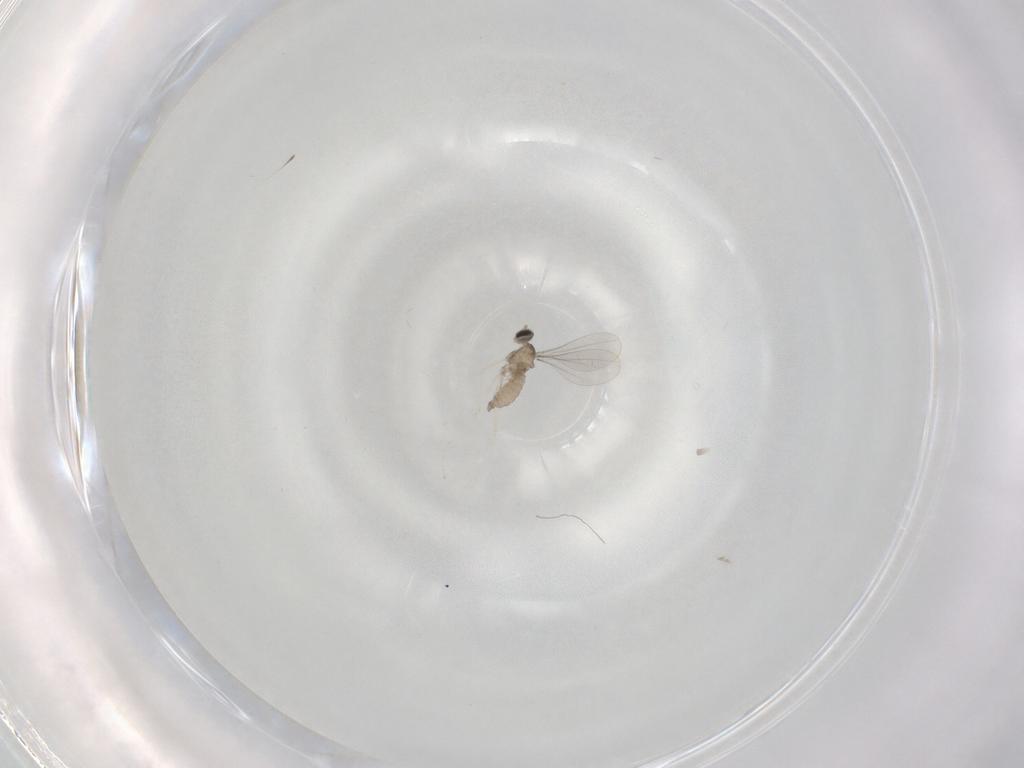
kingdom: Animalia
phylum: Arthropoda
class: Insecta
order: Diptera
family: Chironomidae
